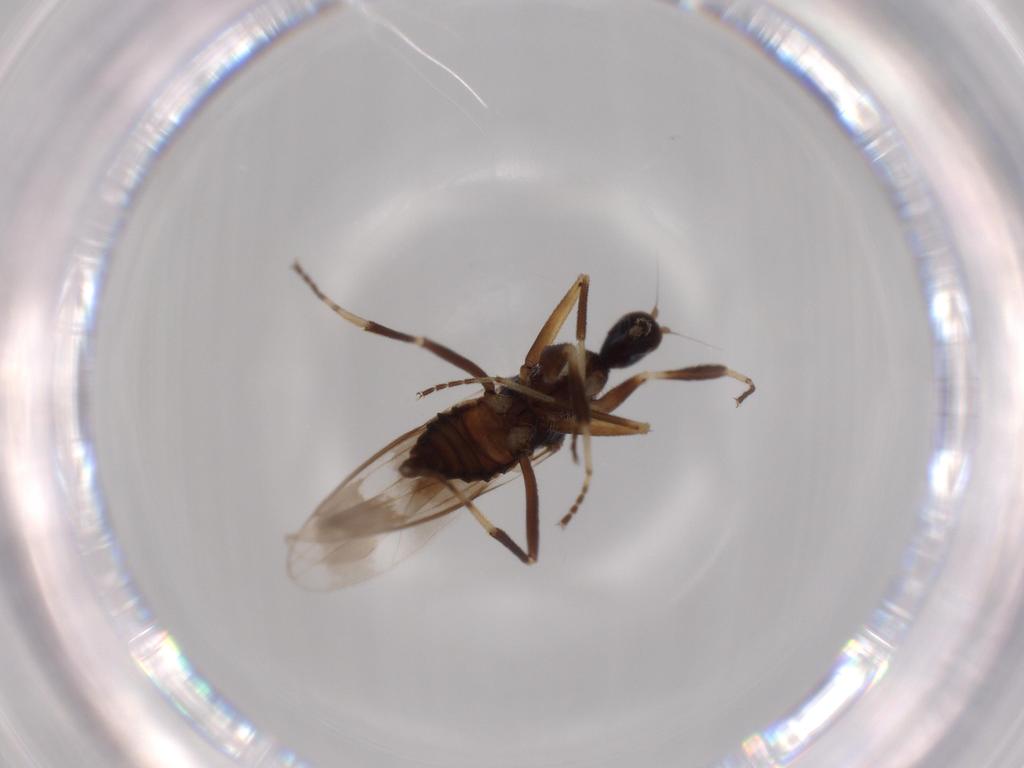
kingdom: Animalia
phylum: Arthropoda
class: Insecta
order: Diptera
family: Hybotidae
